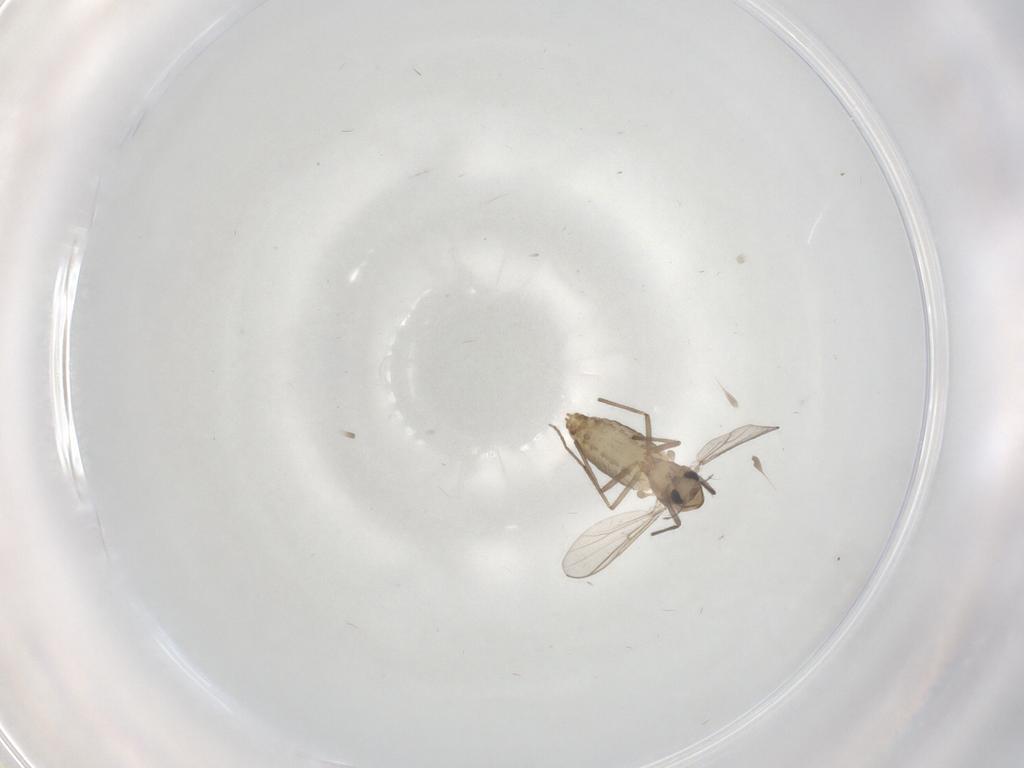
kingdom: Animalia
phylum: Arthropoda
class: Insecta
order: Diptera
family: Chironomidae
